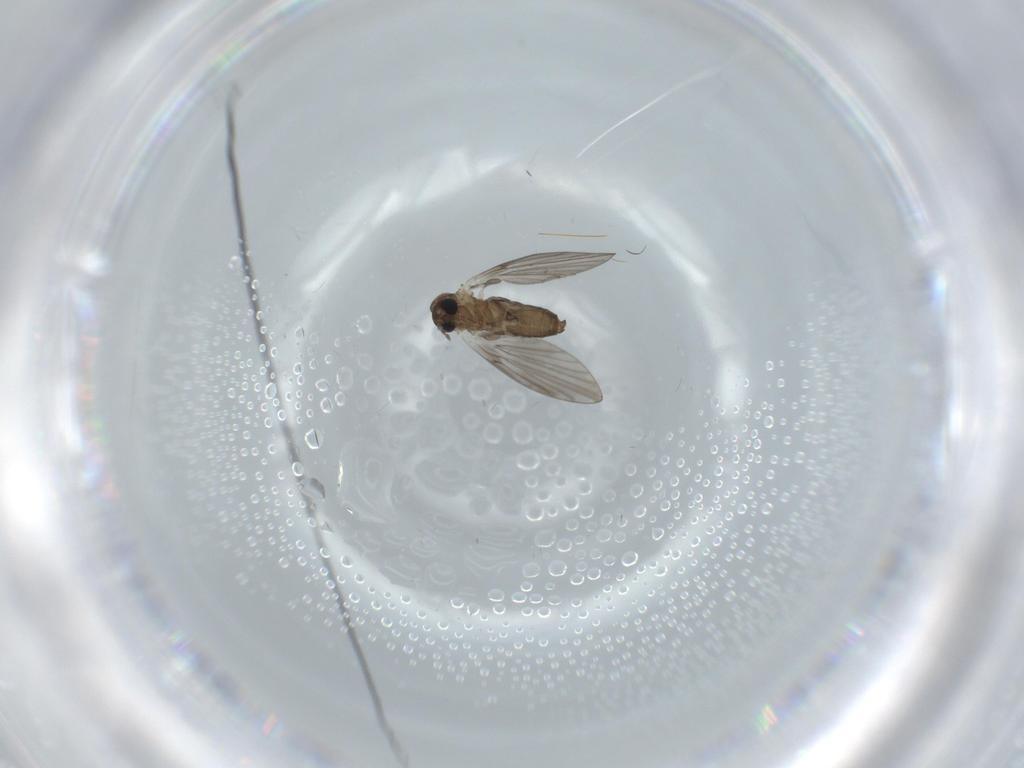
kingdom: Animalia
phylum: Arthropoda
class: Insecta
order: Diptera
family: Psychodidae
